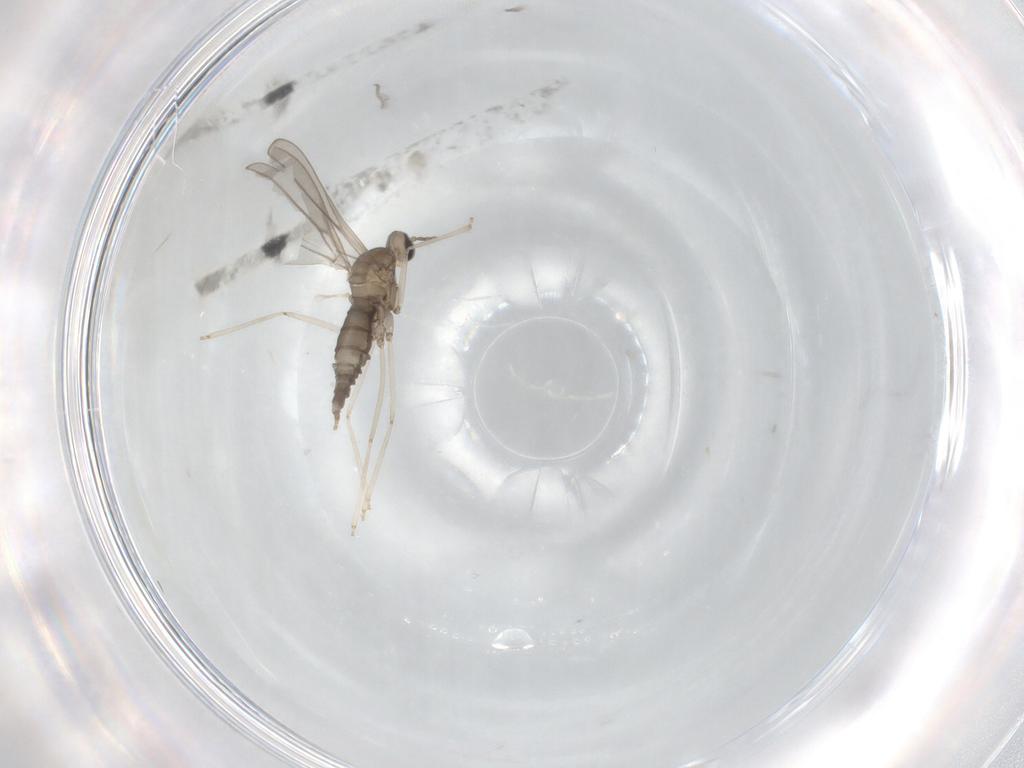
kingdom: Animalia
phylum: Arthropoda
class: Insecta
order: Diptera
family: Cecidomyiidae
